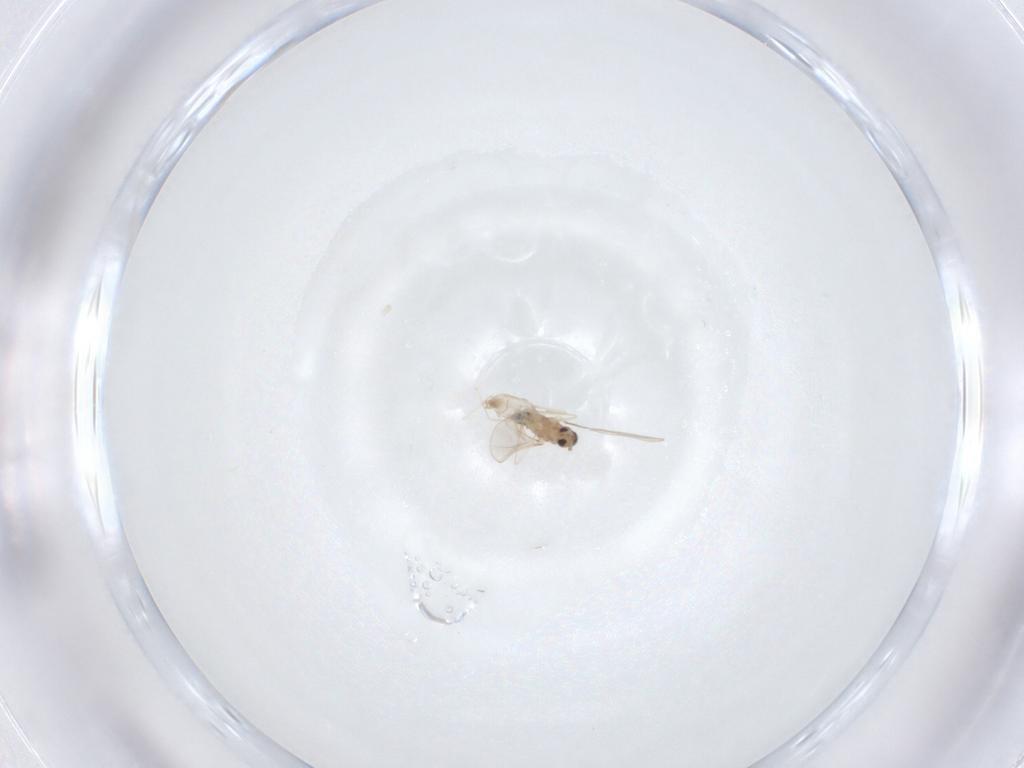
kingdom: Animalia
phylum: Arthropoda
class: Insecta
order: Diptera
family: Cecidomyiidae
